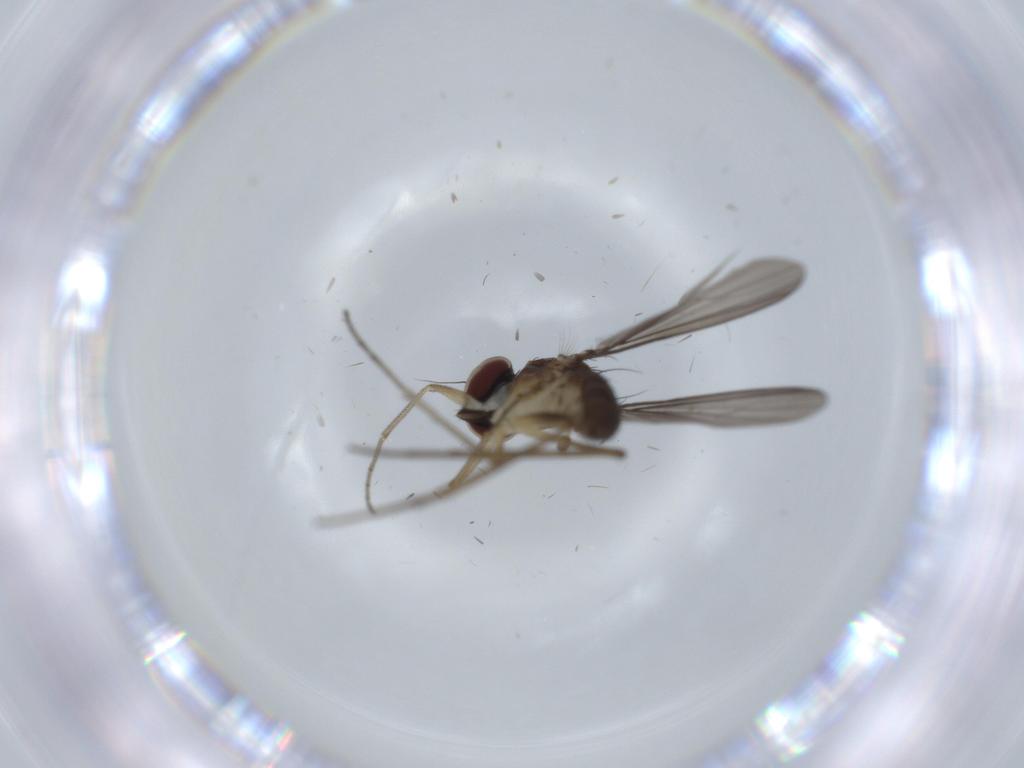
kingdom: Animalia
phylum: Arthropoda
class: Insecta
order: Diptera
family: Dolichopodidae
